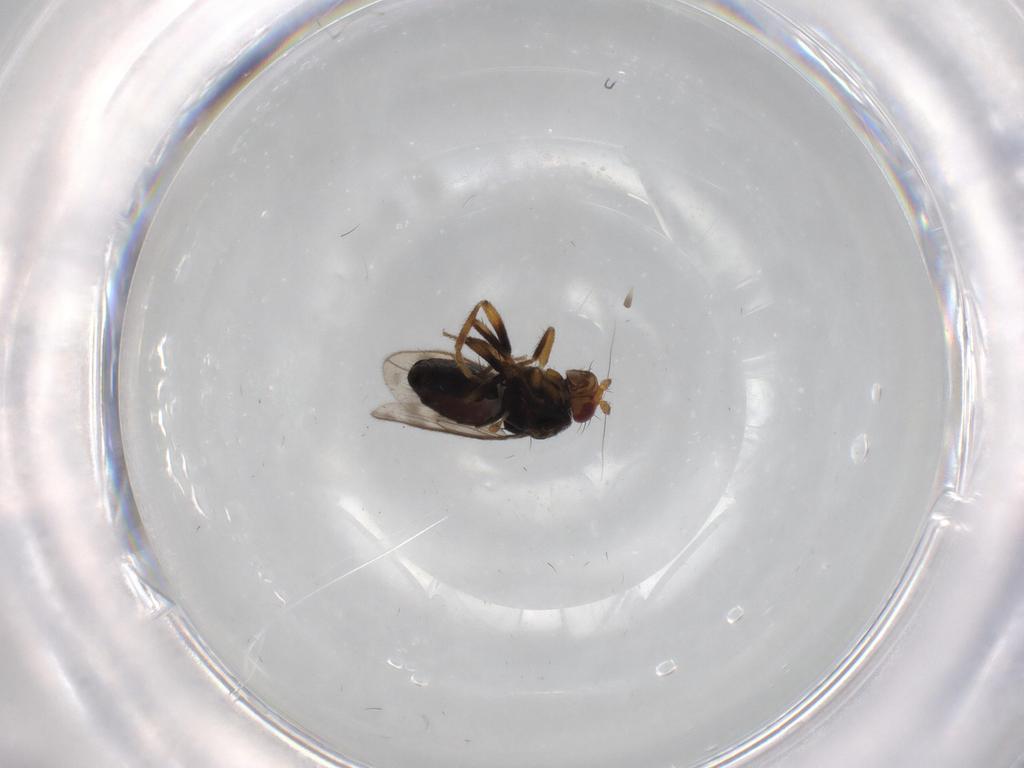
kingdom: Animalia
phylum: Arthropoda
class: Insecta
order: Diptera
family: Sphaeroceridae
